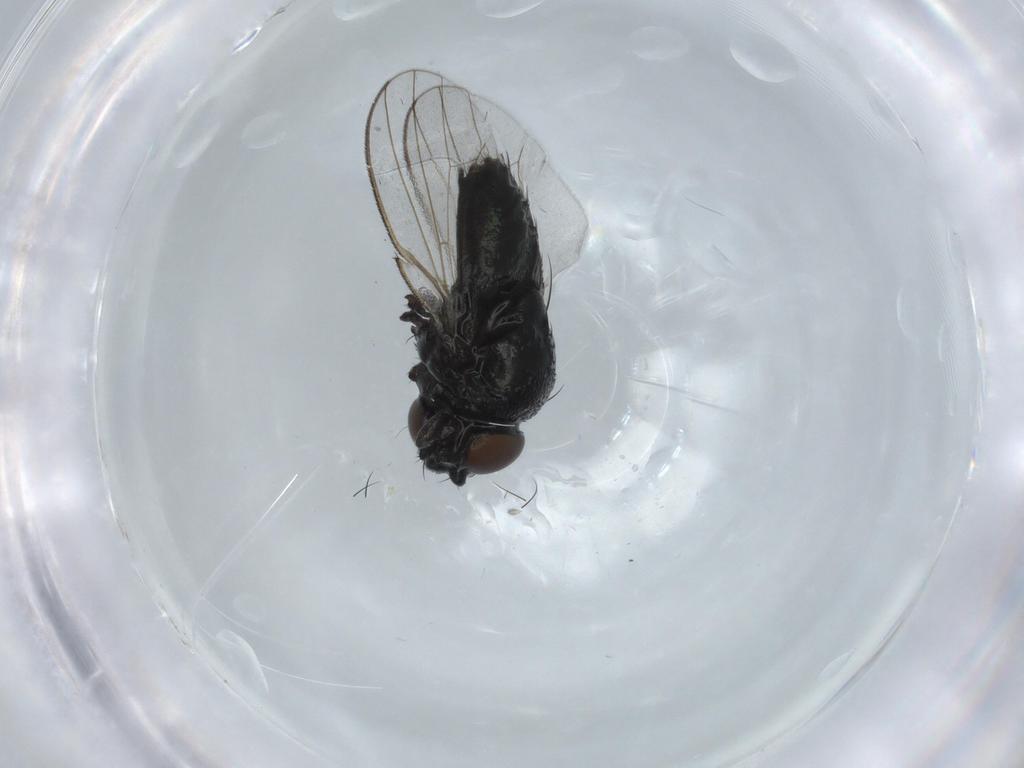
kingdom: Animalia
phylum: Arthropoda
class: Insecta
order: Diptera
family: Milichiidae
